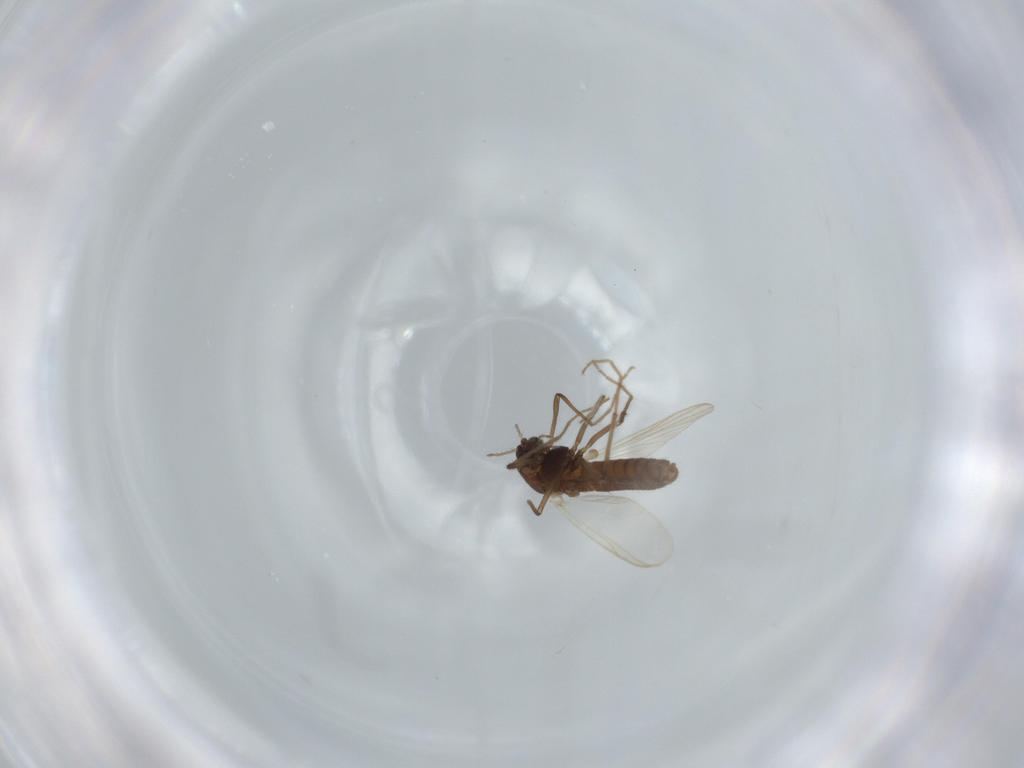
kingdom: Animalia
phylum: Arthropoda
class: Insecta
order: Diptera
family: Chironomidae
